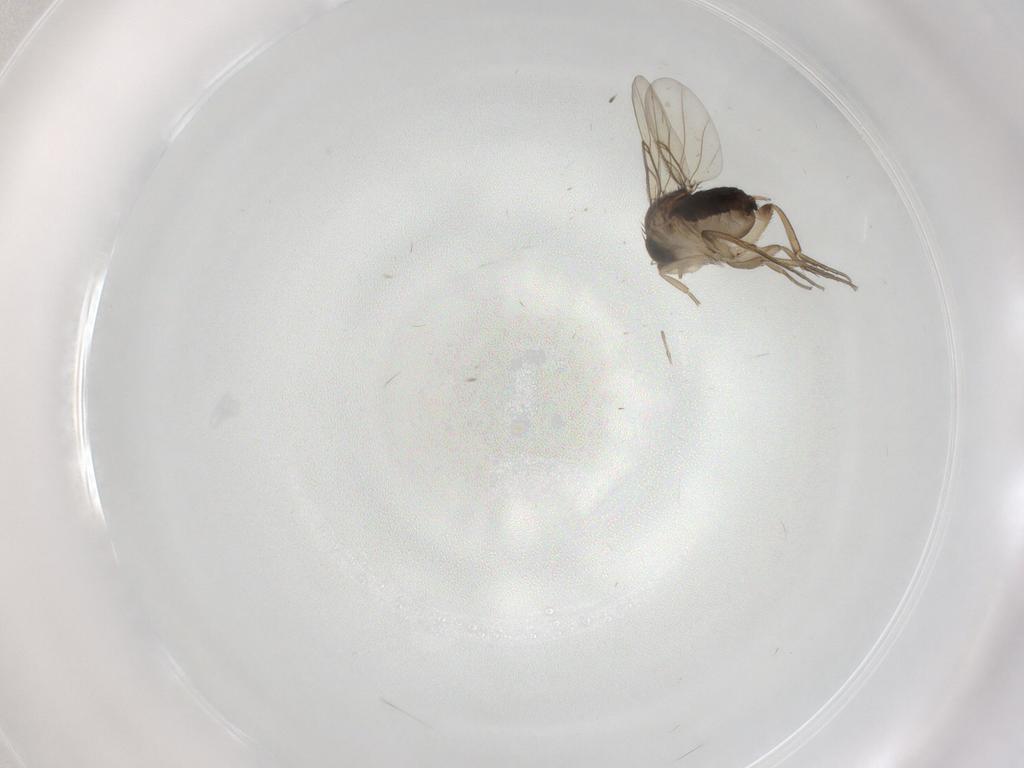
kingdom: Animalia
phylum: Arthropoda
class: Insecta
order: Diptera
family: Phoridae
